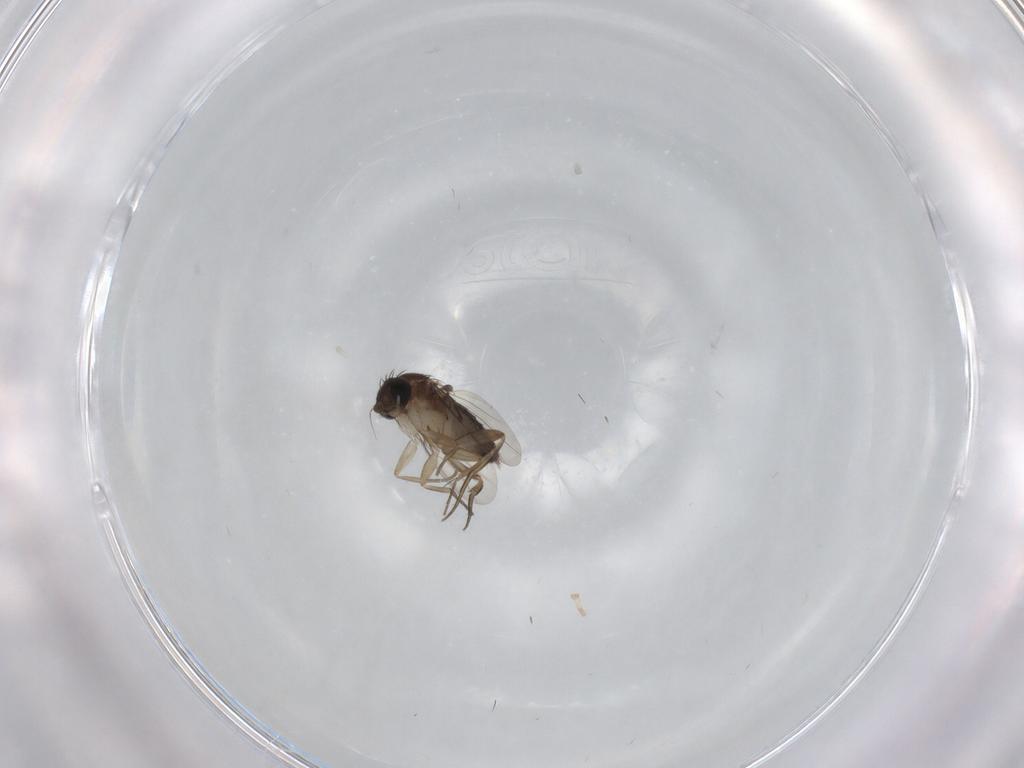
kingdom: Animalia
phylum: Arthropoda
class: Insecta
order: Diptera
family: Phoridae
